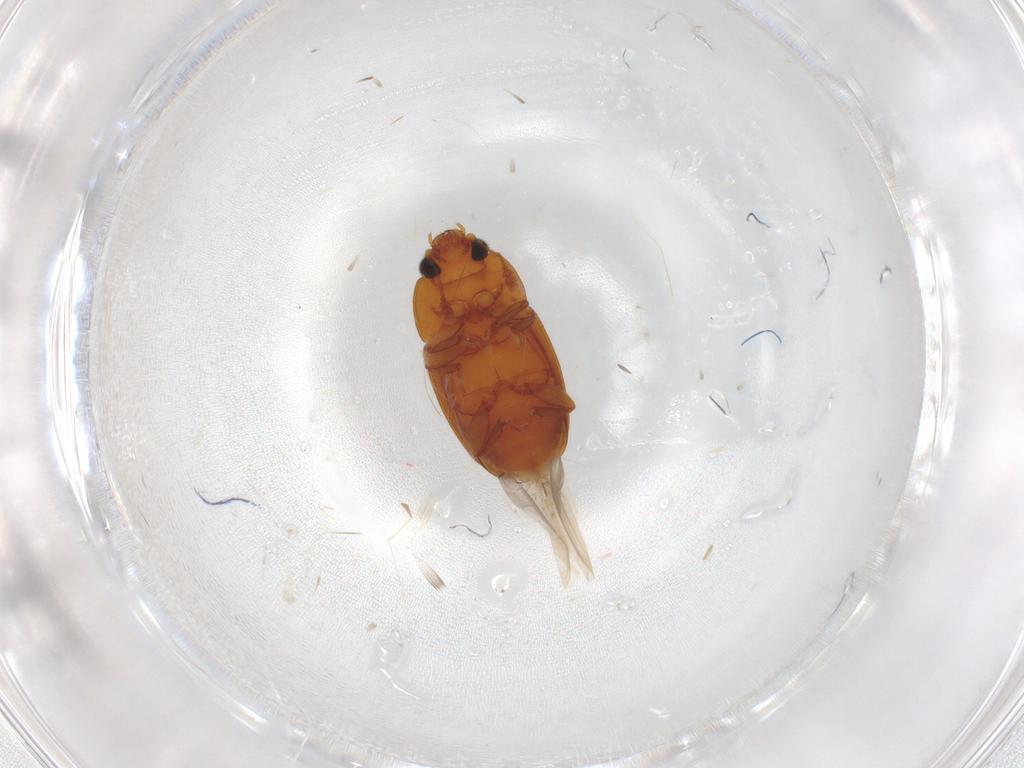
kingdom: Animalia
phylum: Arthropoda
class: Insecta
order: Coleoptera
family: Nitidulidae
